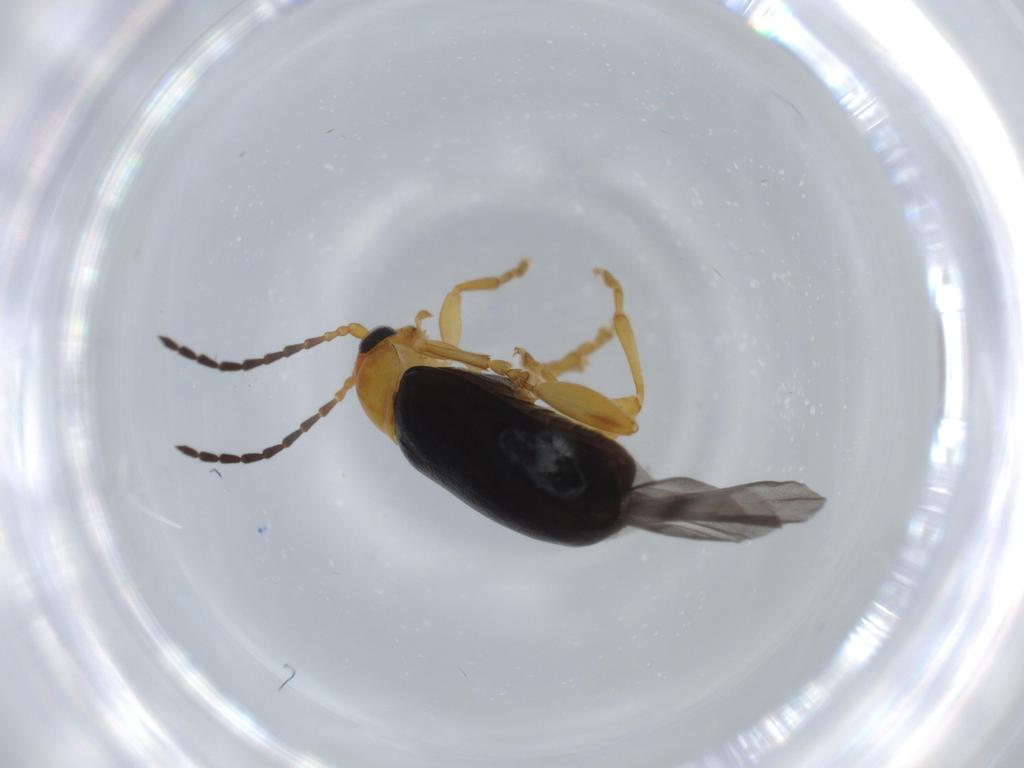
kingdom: Animalia
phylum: Arthropoda
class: Insecta
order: Coleoptera
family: Chrysomelidae
